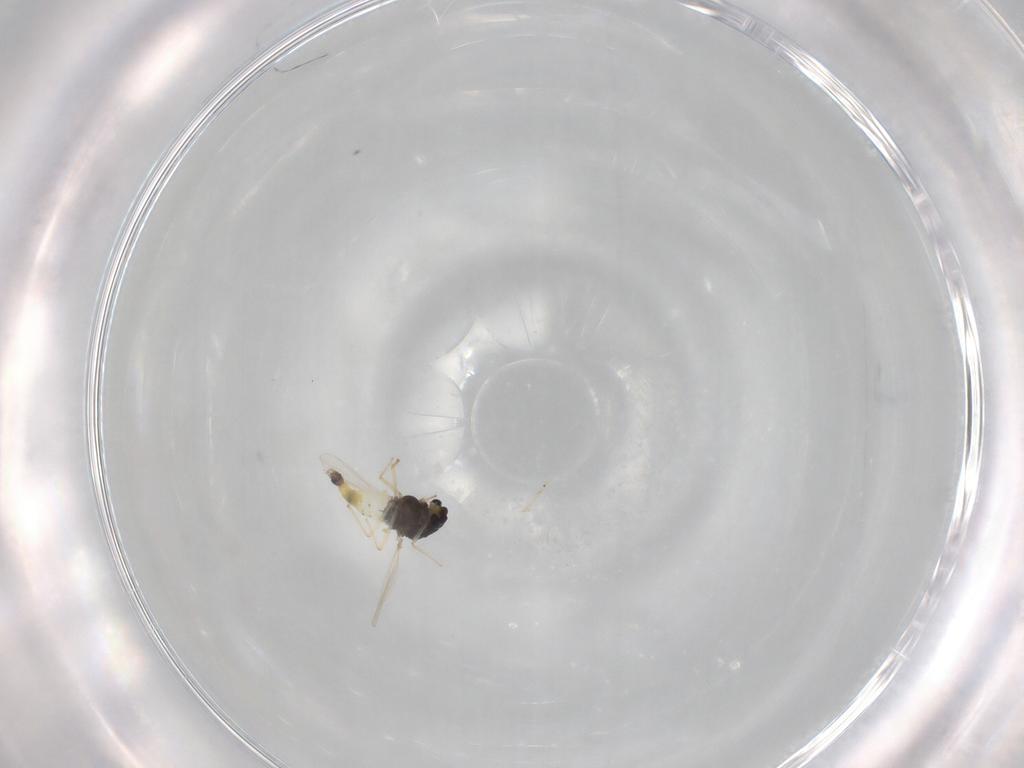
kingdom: Animalia
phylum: Arthropoda
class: Insecta
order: Diptera
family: Chironomidae
